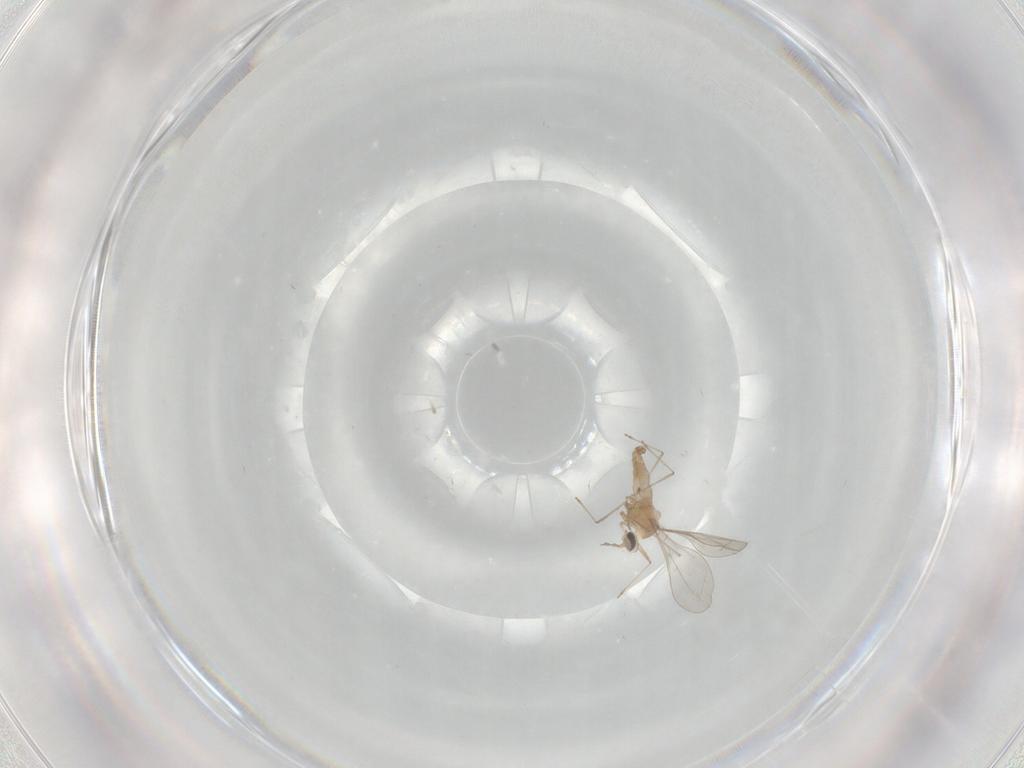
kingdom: Animalia
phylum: Arthropoda
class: Insecta
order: Diptera
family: Cecidomyiidae
